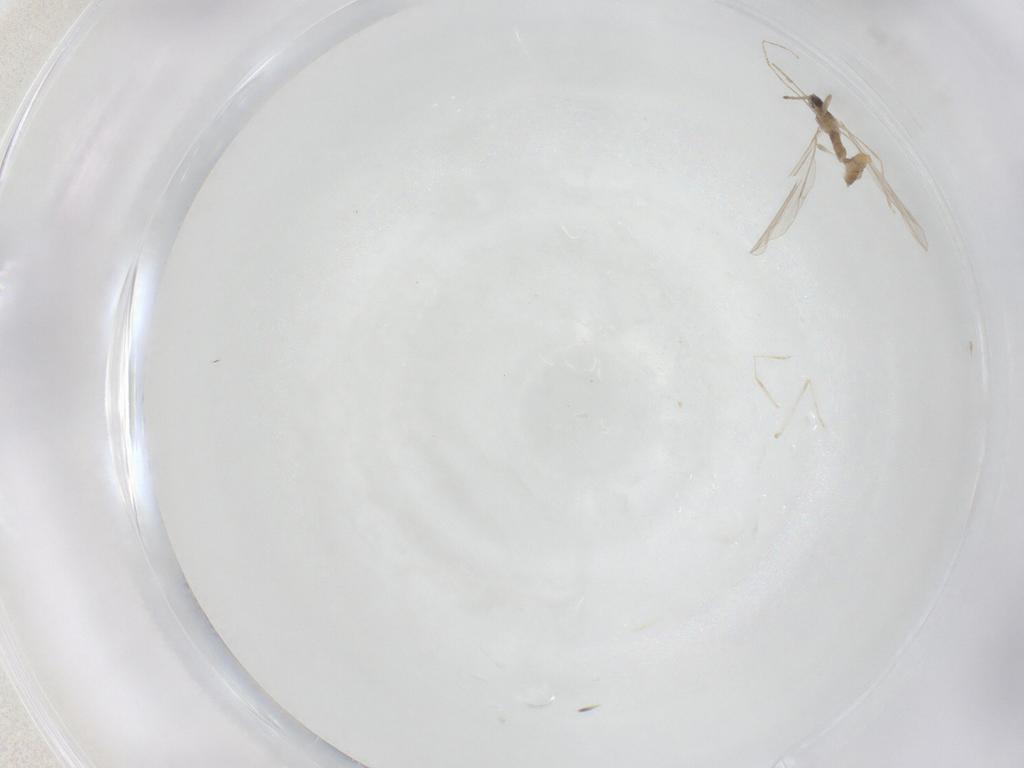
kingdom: Animalia
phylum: Arthropoda
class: Insecta
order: Diptera
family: Cecidomyiidae
